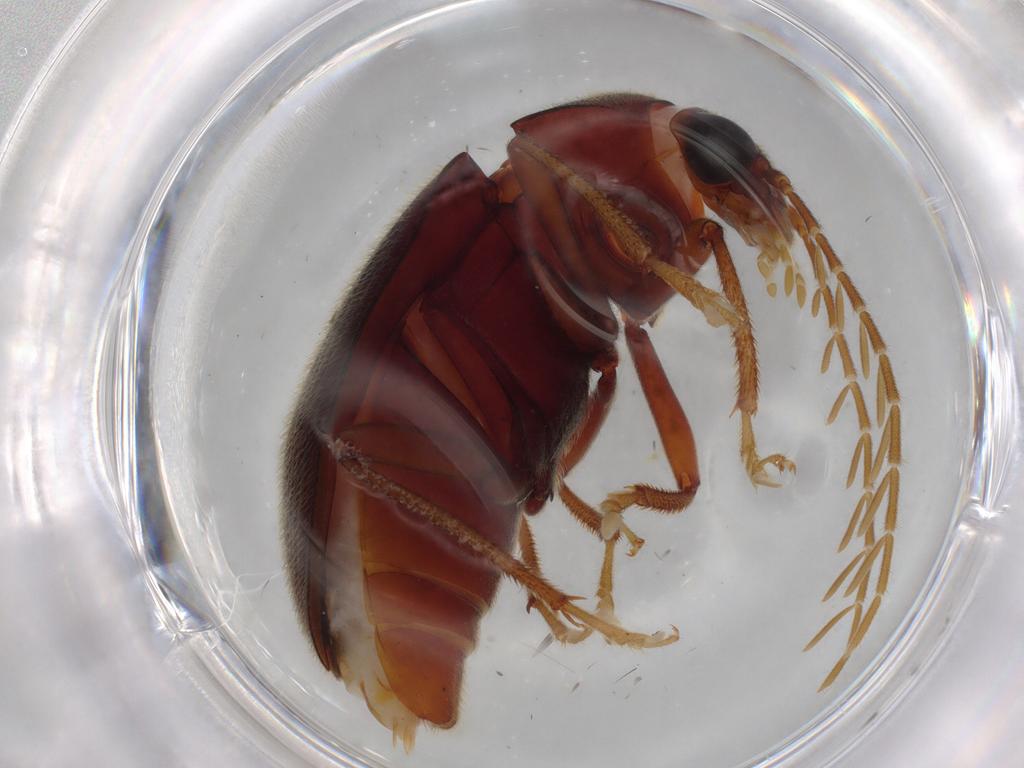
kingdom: Animalia
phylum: Arthropoda
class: Insecta
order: Coleoptera
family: Ptilodactylidae
